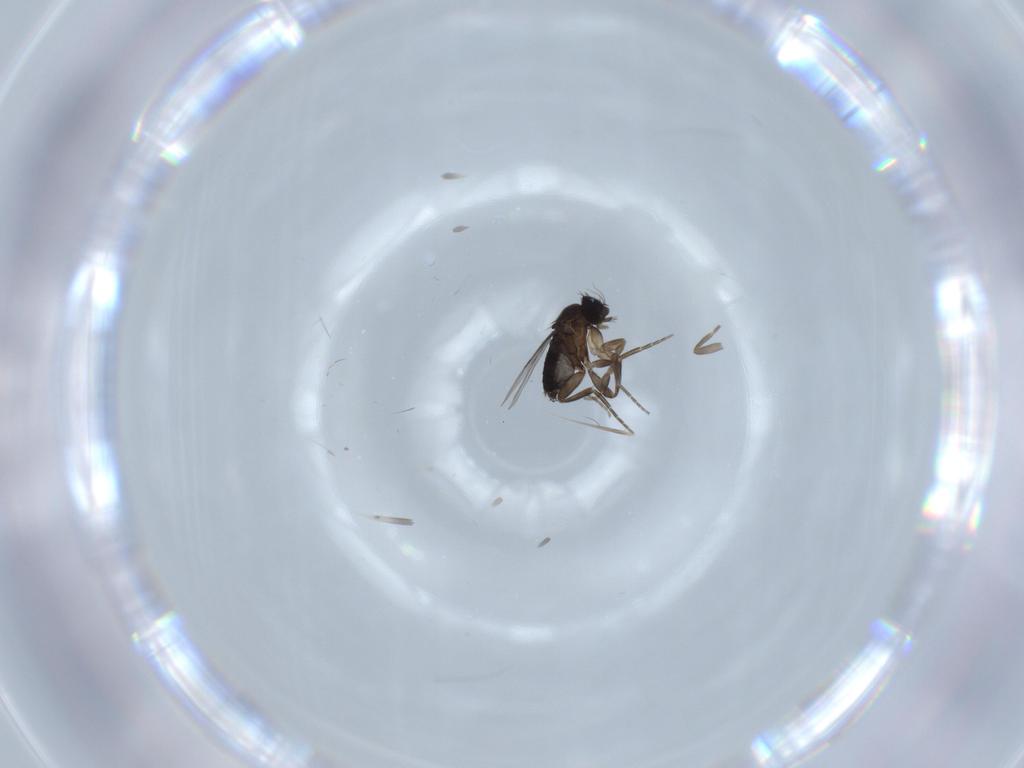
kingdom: Animalia
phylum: Arthropoda
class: Insecta
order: Diptera
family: Phoridae
